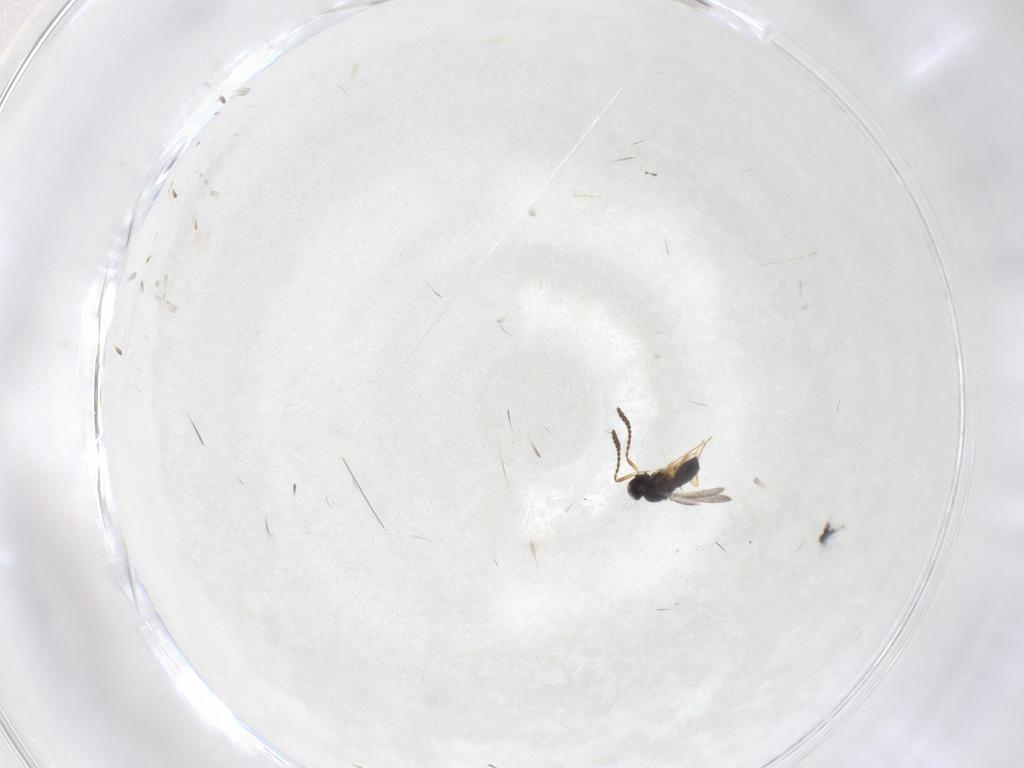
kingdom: Animalia
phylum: Arthropoda
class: Insecta
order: Hymenoptera
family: Scelionidae
